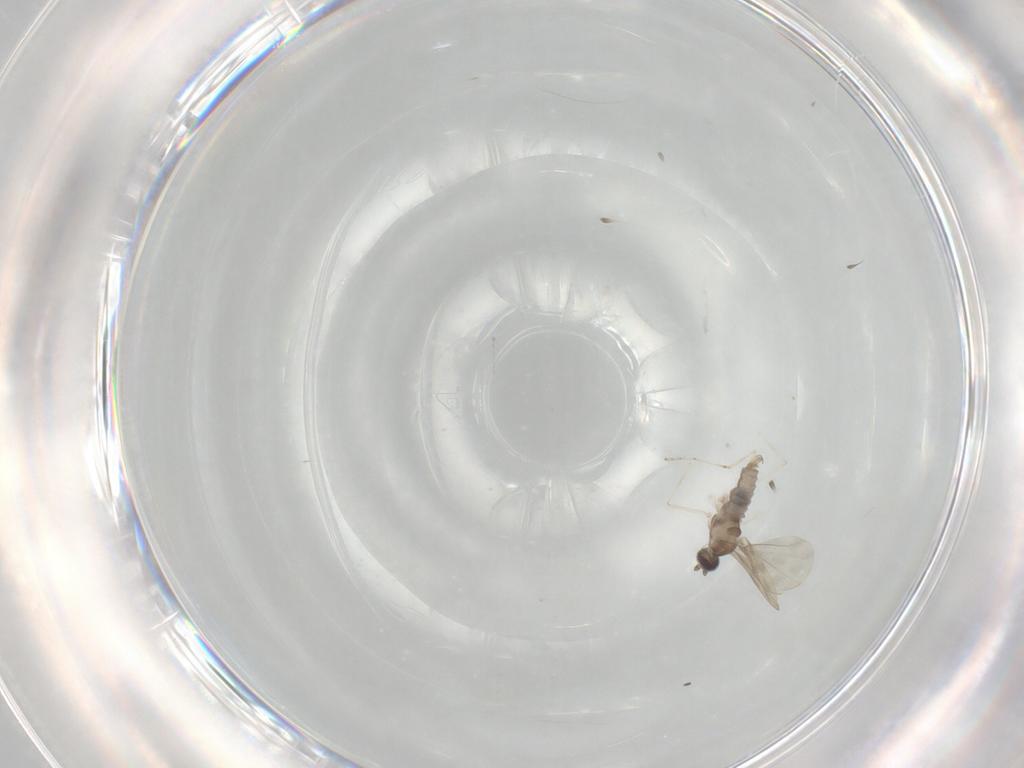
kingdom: Animalia
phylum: Arthropoda
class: Insecta
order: Diptera
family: Cecidomyiidae
